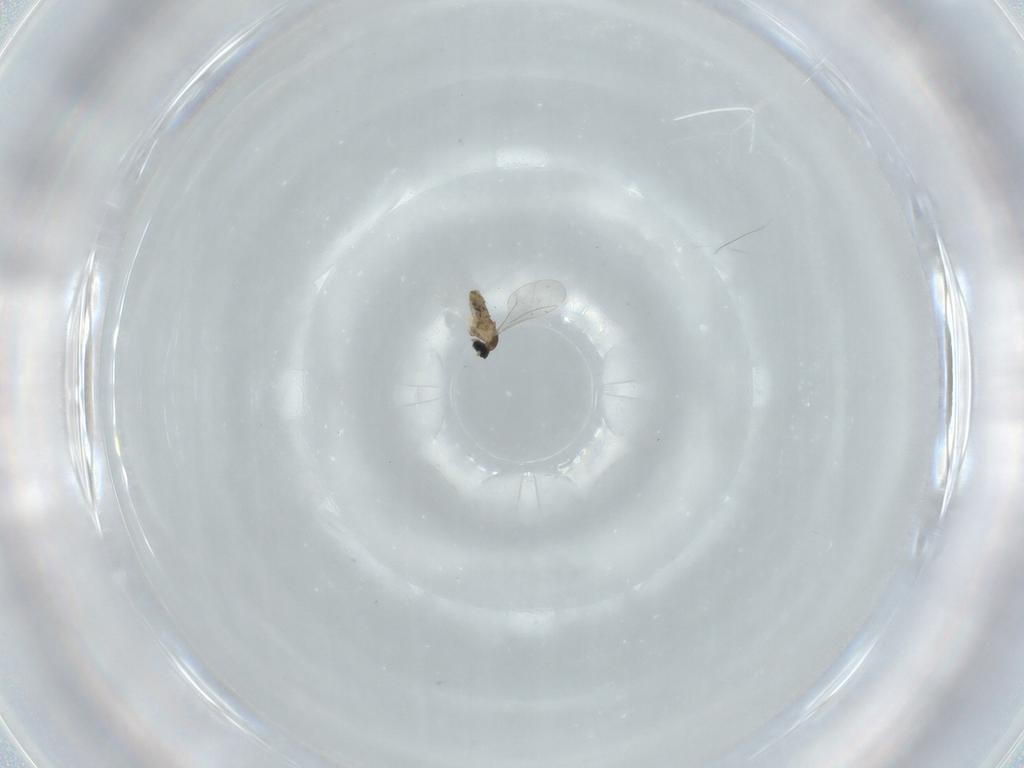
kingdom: Animalia
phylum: Arthropoda
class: Insecta
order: Diptera
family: Cecidomyiidae
